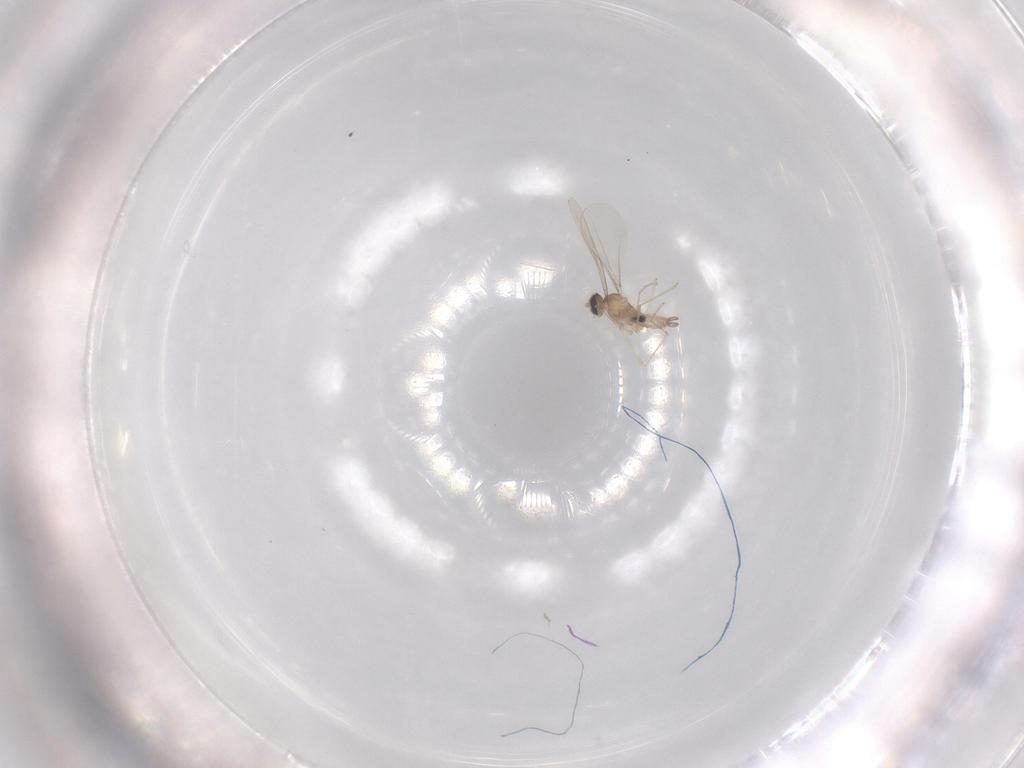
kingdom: Animalia
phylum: Arthropoda
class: Insecta
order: Diptera
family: Cecidomyiidae
